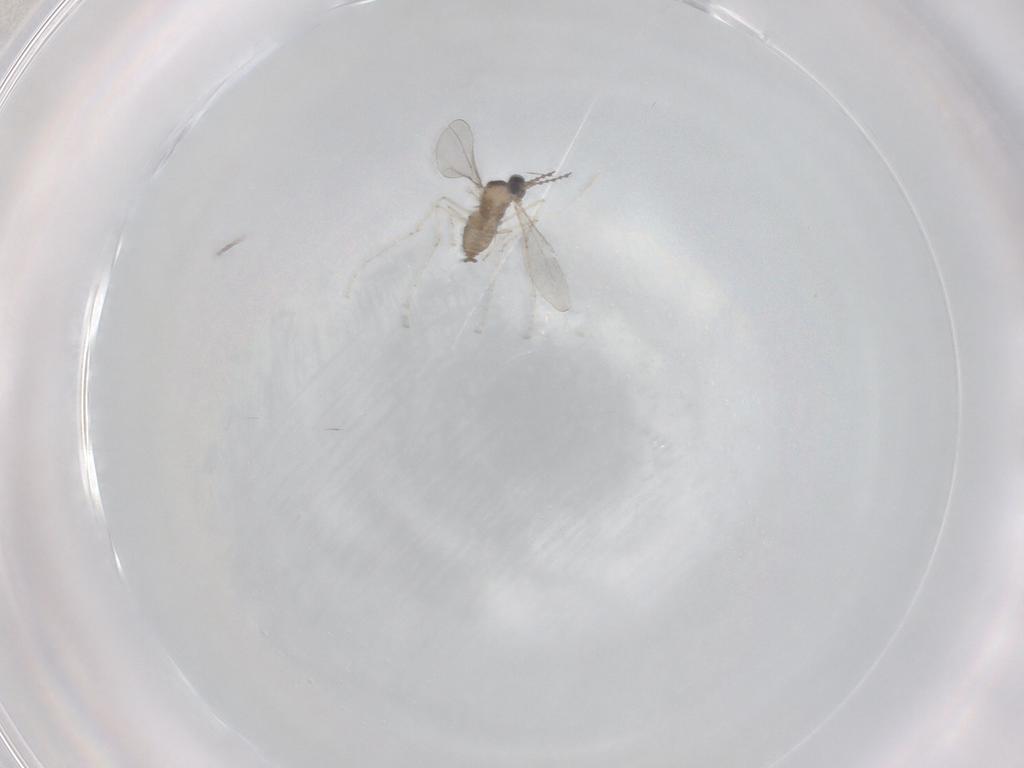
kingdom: Animalia
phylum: Arthropoda
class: Insecta
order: Diptera
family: Cecidomyiidae
